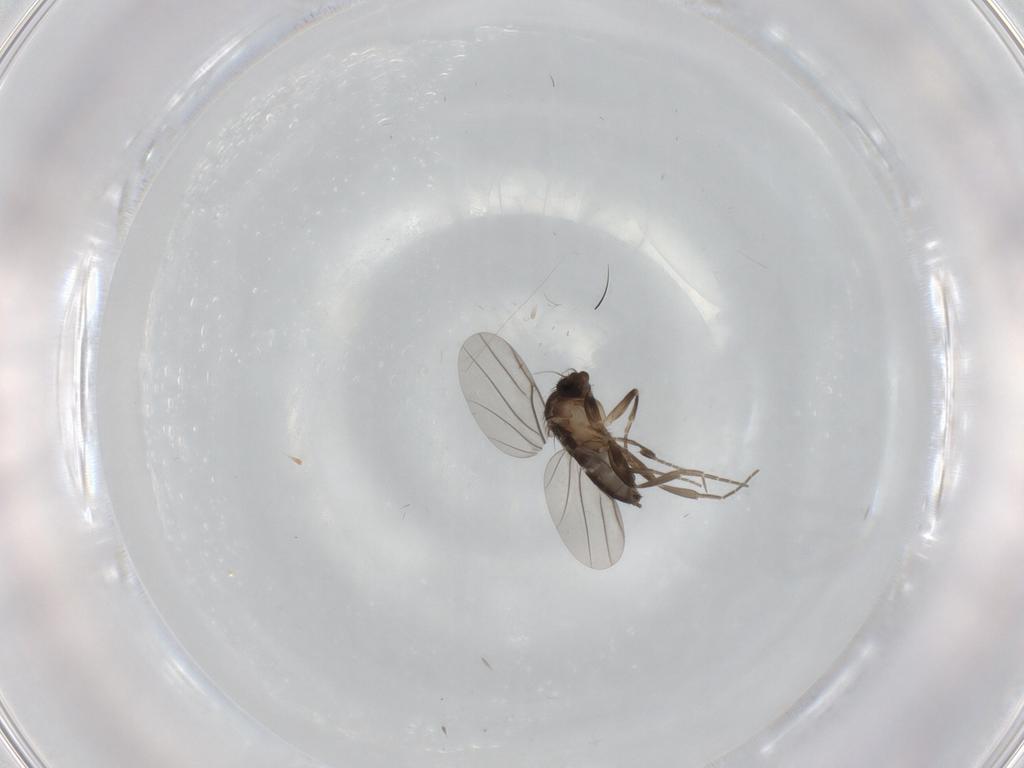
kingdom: Animalia
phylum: Arthropoda
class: Insecta
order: Diptera
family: Phoridae
